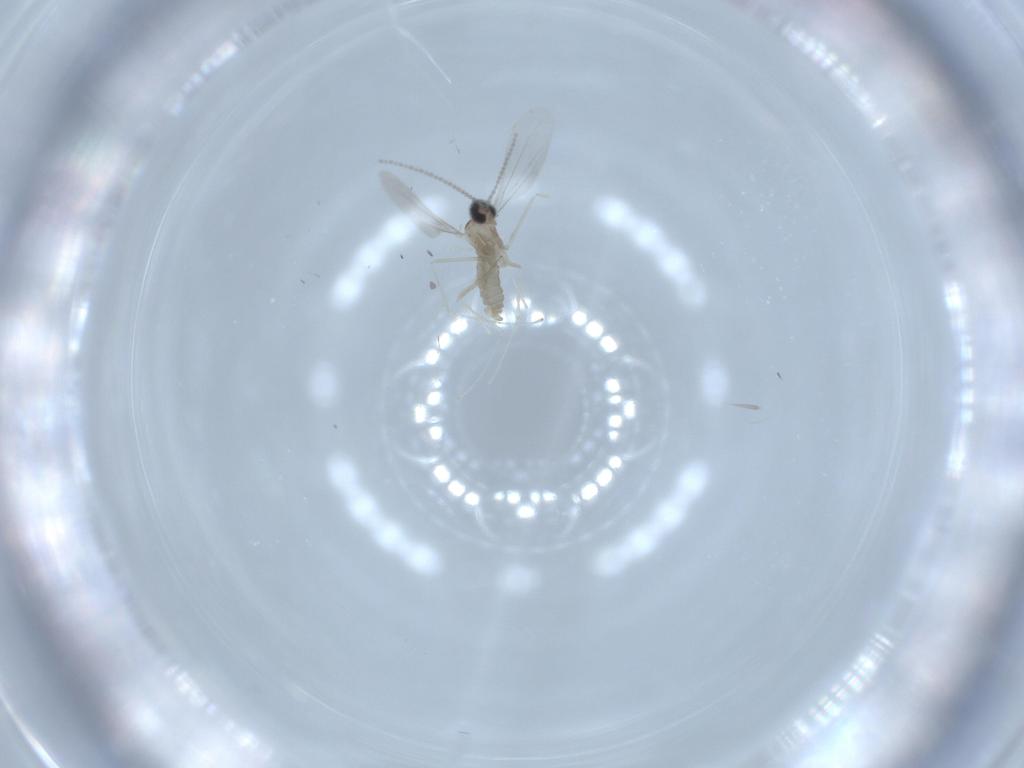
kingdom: Animalia
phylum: Arthropoda
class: Insecta
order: Diptera
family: Cecidomyiidae
